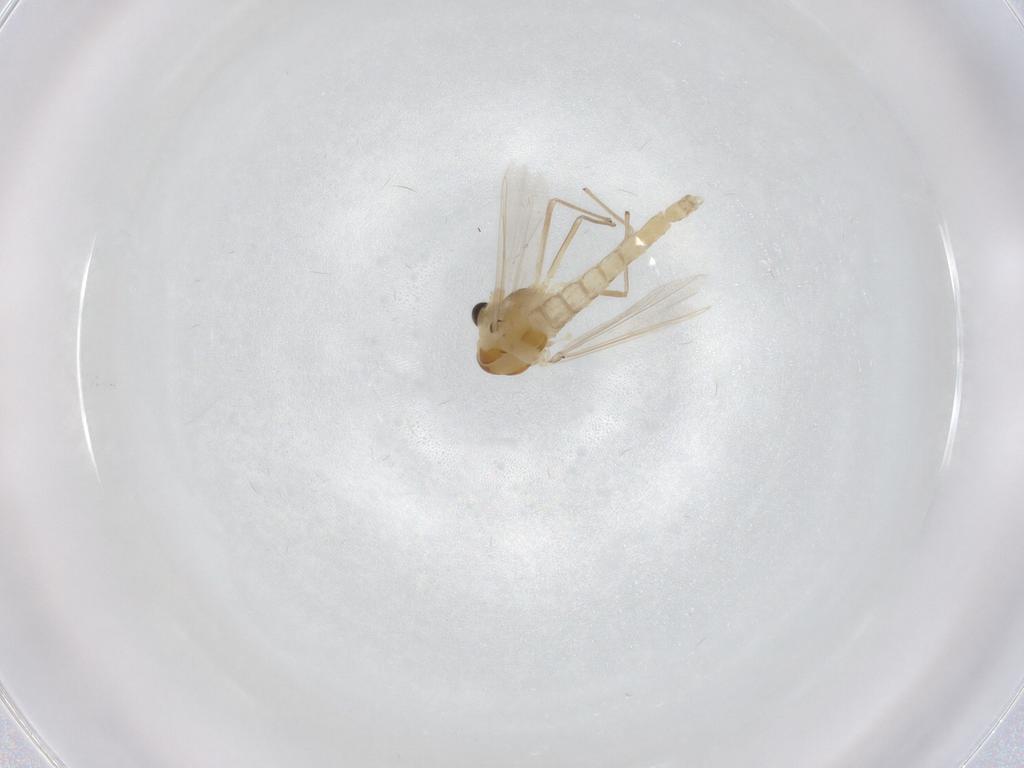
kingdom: Animalia
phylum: Arthropoda
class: Insecta
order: Diptera
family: Chironomidae
